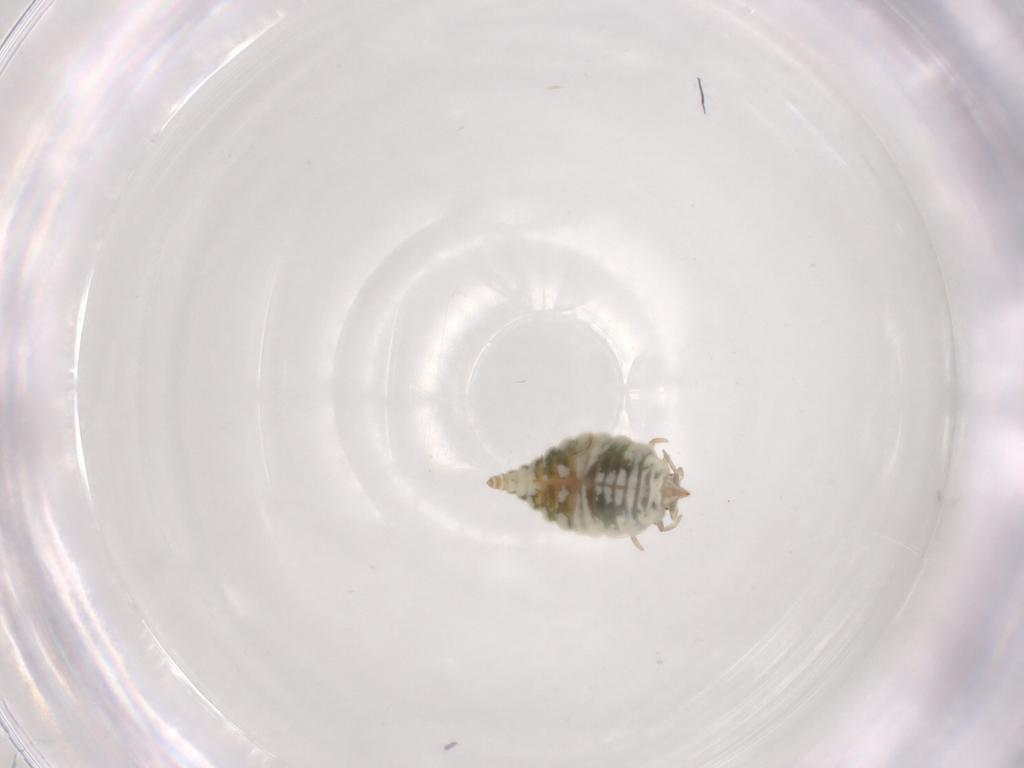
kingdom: Animalia
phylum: Arthropoda
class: Insecta
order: Neuroptera
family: Coniopterygidae
